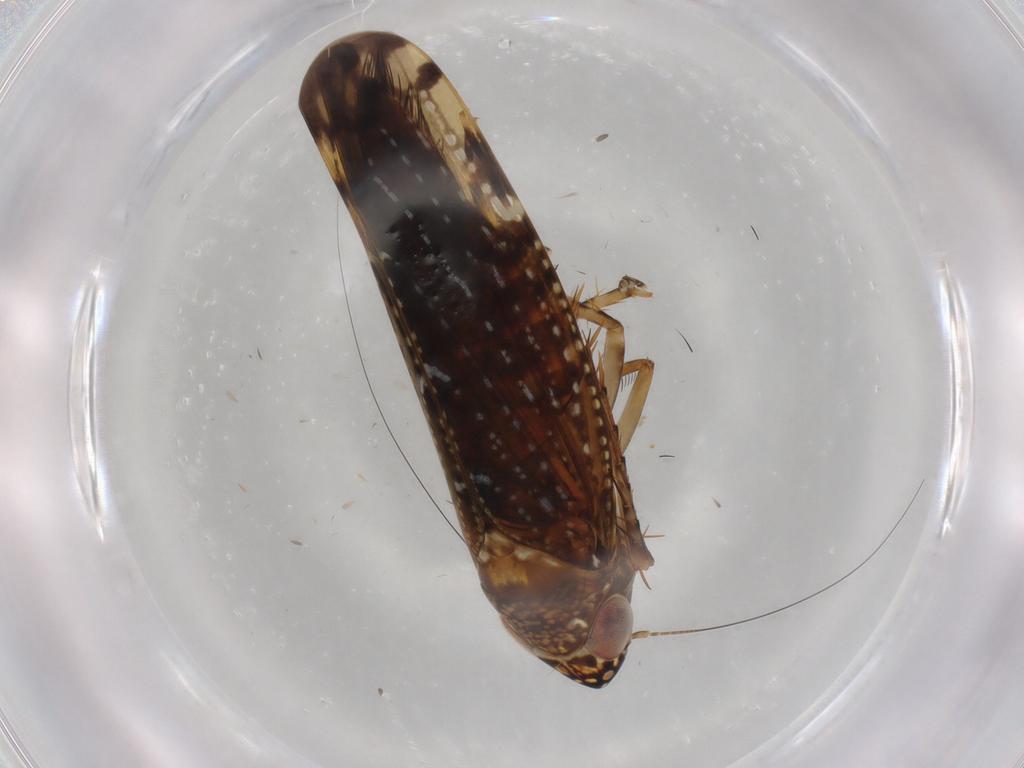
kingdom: Animalia
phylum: Arthropoda
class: Insecta
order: Hemiptera
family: Cicadellidae
